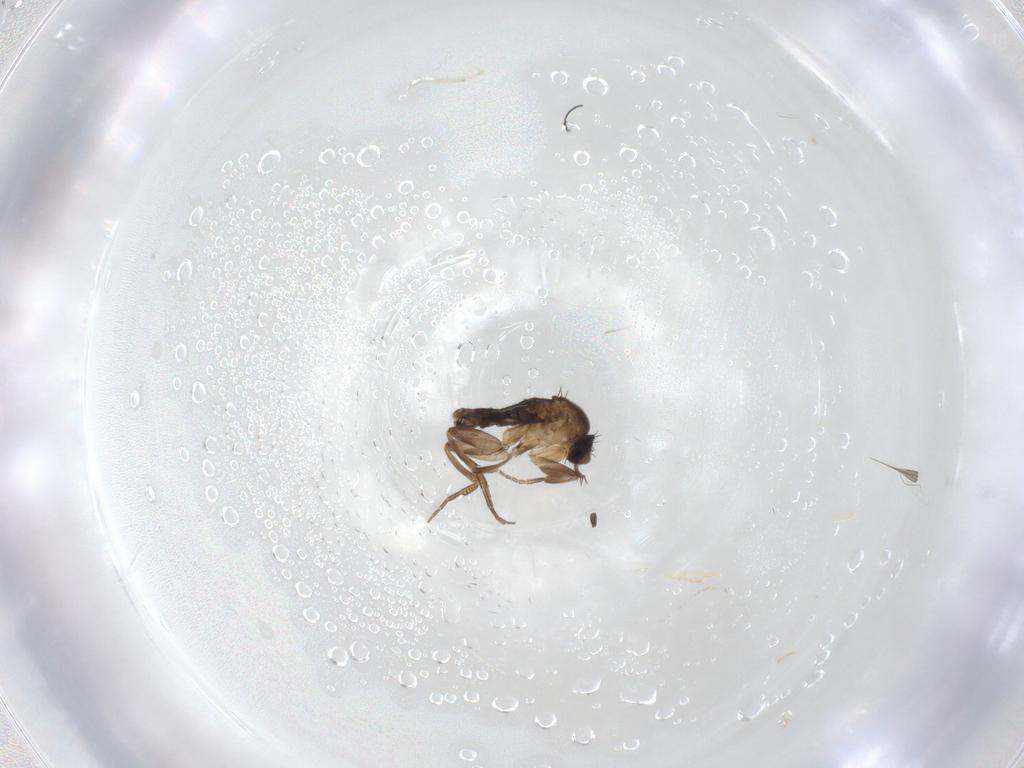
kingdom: Animalia
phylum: Arthropoda
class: Insecta
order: Diptera
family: Phoridae
